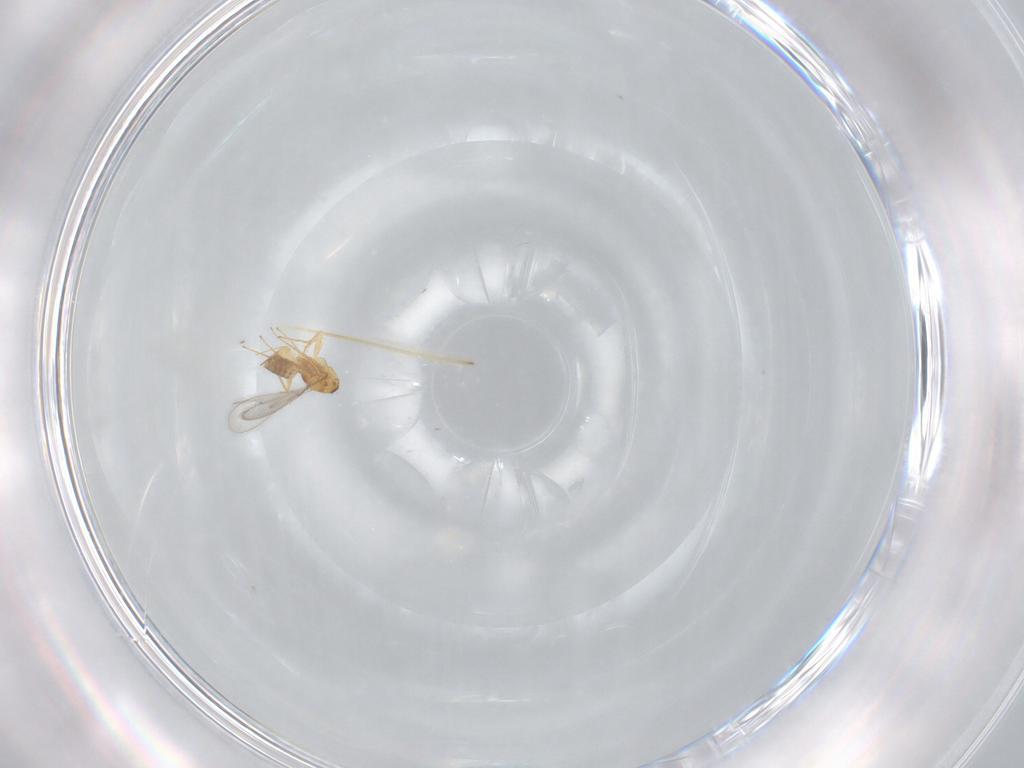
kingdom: Animalia
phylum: Arthropoda
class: Insecta
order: Hymenoptera
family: Mymaridae
